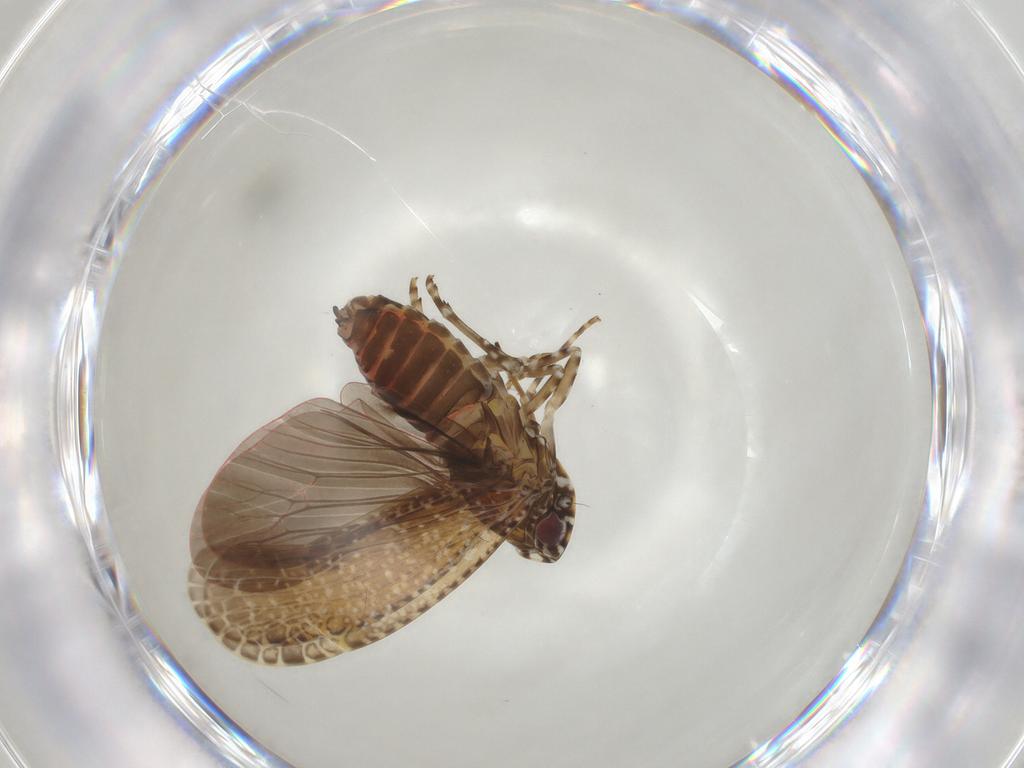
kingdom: Animalia
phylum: Arthropoda
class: Insecta
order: Hemiptera
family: Achilidae
